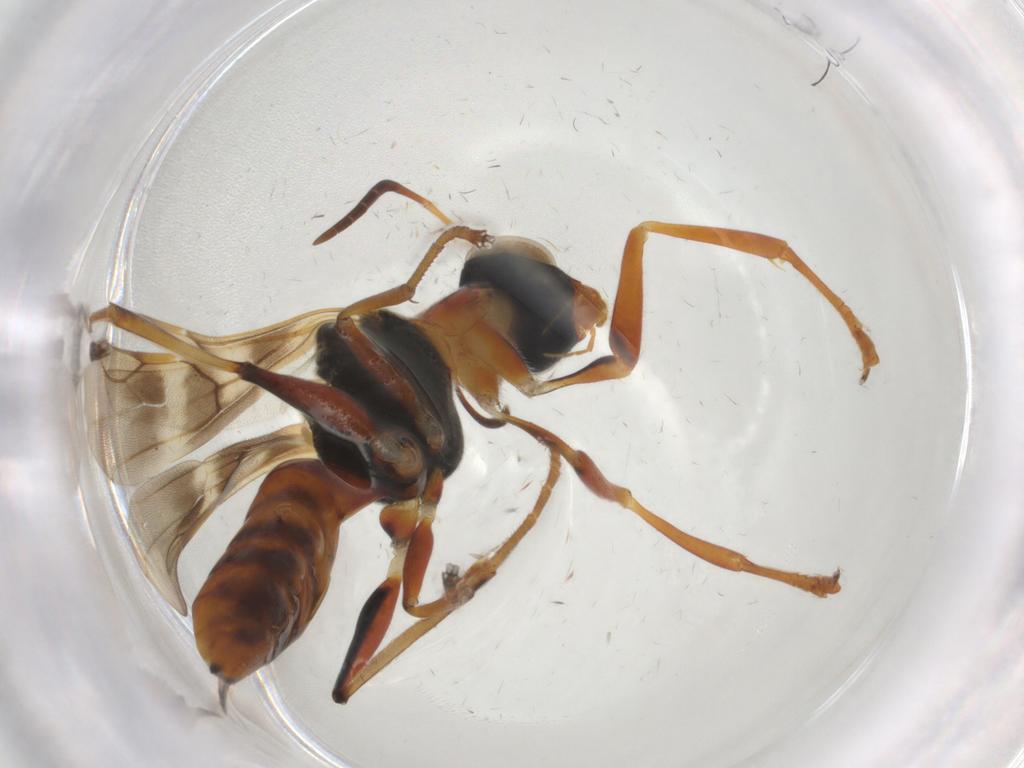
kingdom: Animalia
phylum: Arthropoda
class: Insecta
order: Hymenoptera
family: Dryinidae
